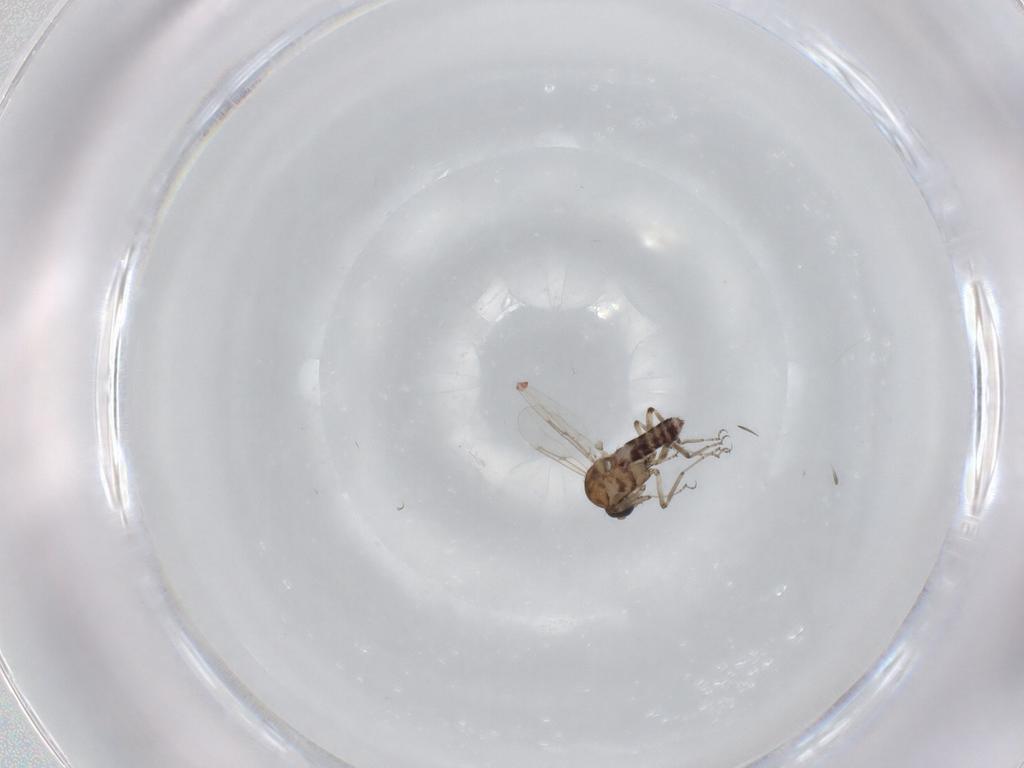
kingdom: Animalia
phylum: Arthropoda
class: Insecta
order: Diptera
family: Ceratopogonidae
